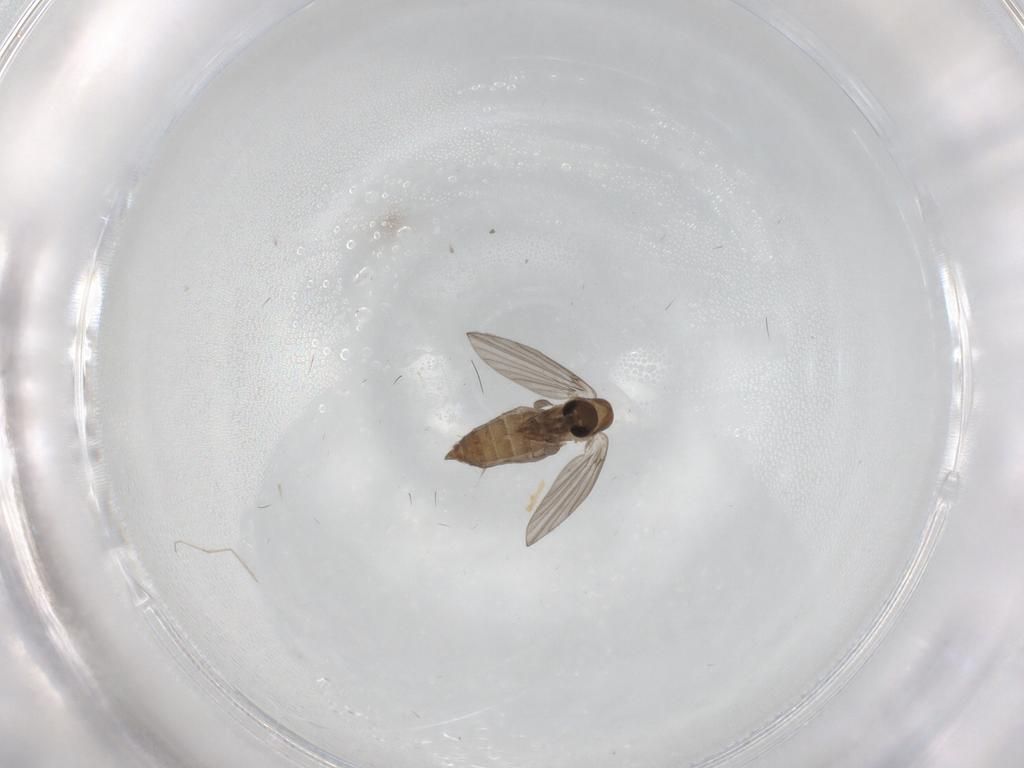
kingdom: Animalia
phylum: Arthropoda
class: Insecta
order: Diptera
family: Cecidomyiidae
